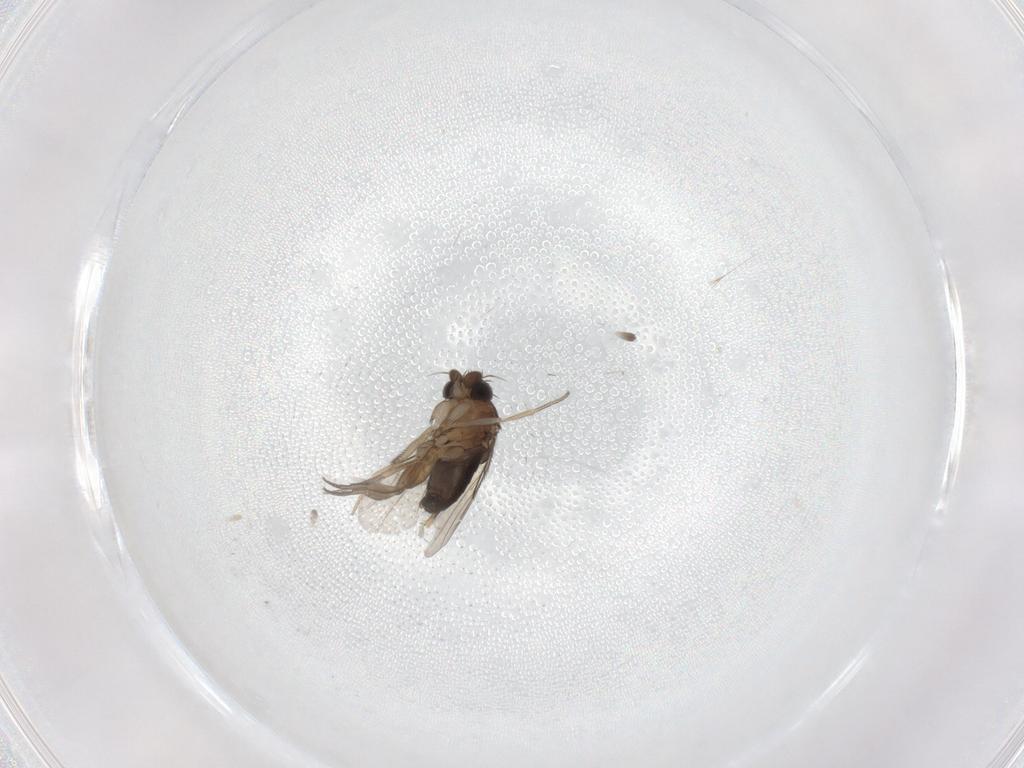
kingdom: Animalia
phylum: Arthropoda
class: Insecta
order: Diptera
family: Phoridae
